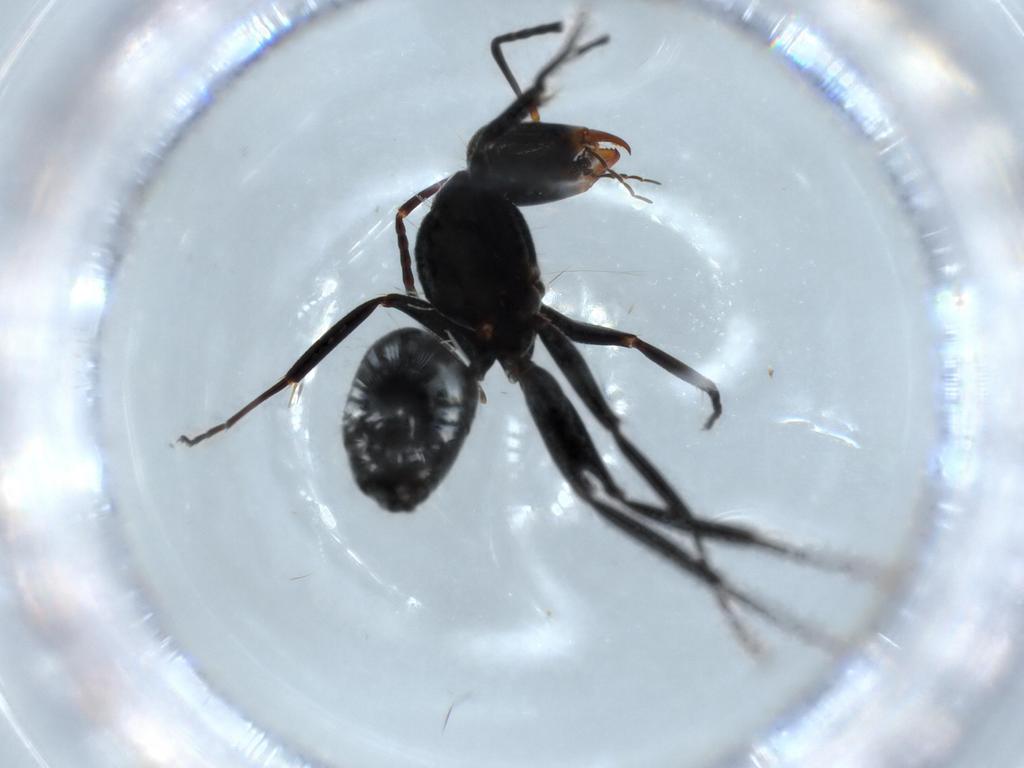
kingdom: Animalia
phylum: Arthropoda
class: Insecta
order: Hymenoptera
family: Formicidae
